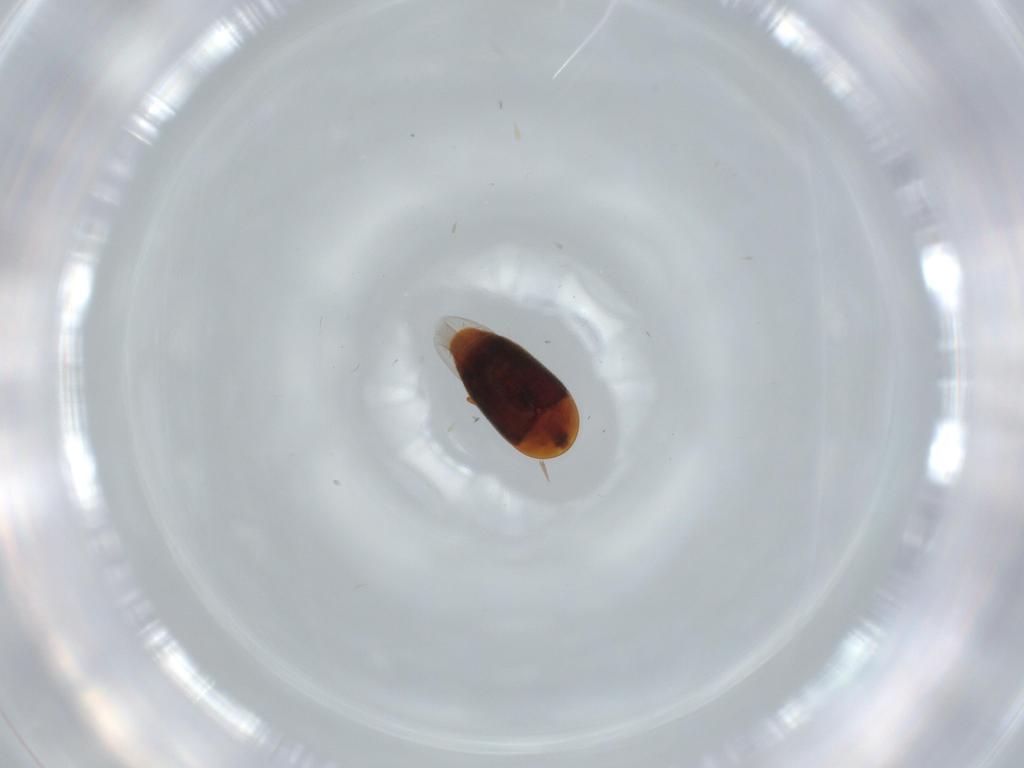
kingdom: Animalia
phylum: Arthropoda
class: Insecta
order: Coleoptera
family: Corylophidae
